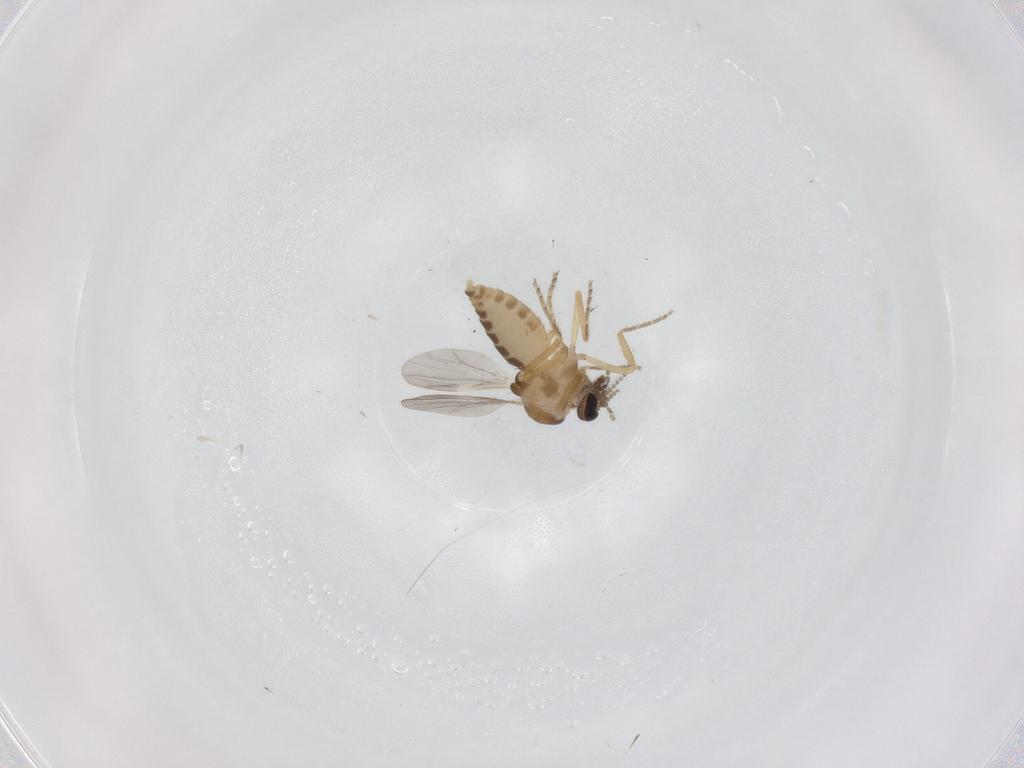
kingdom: Animalia
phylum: Arthropoda
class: Insecta
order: Diptera
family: Ceratopogonidae
